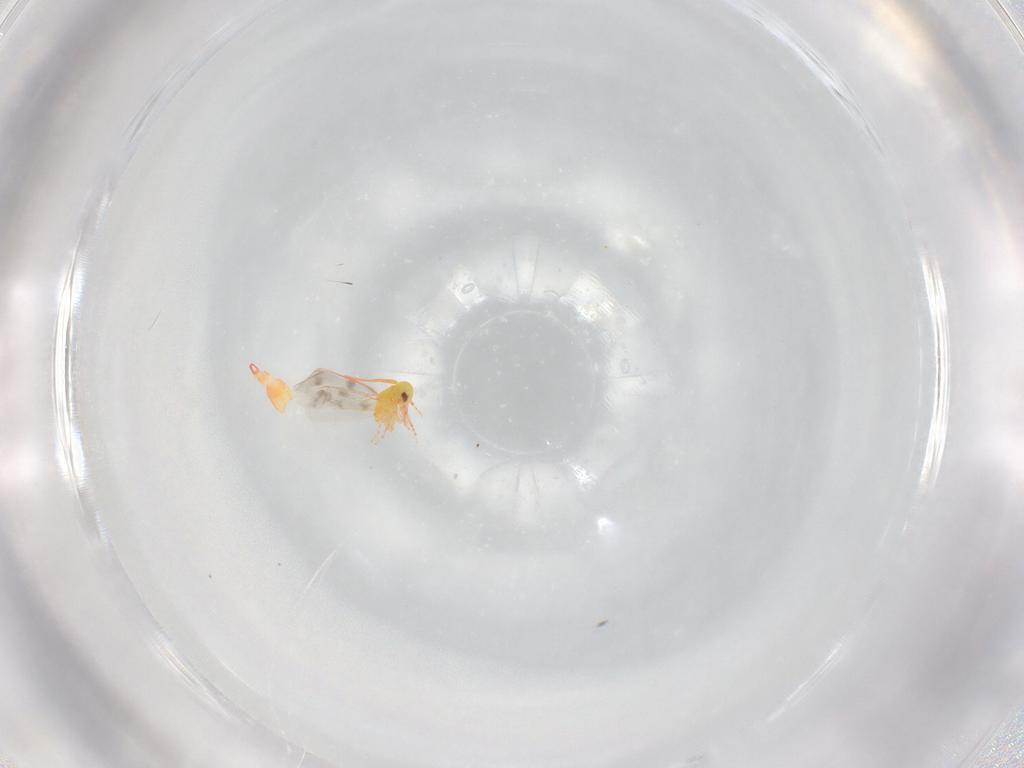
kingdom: Animalia
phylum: Arthropoda
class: Insecta
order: Hemiptera
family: Aleyrodidae
